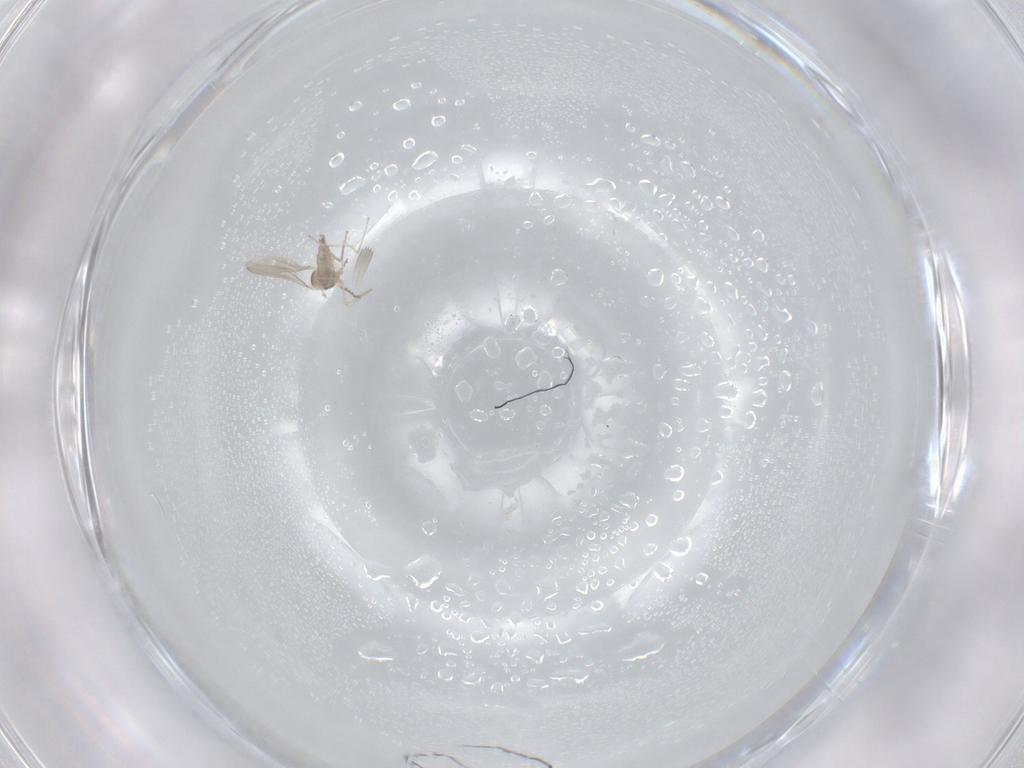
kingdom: Animalia
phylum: Arthropoda
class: Insecta
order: Diptera
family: Cecidomyiidae
